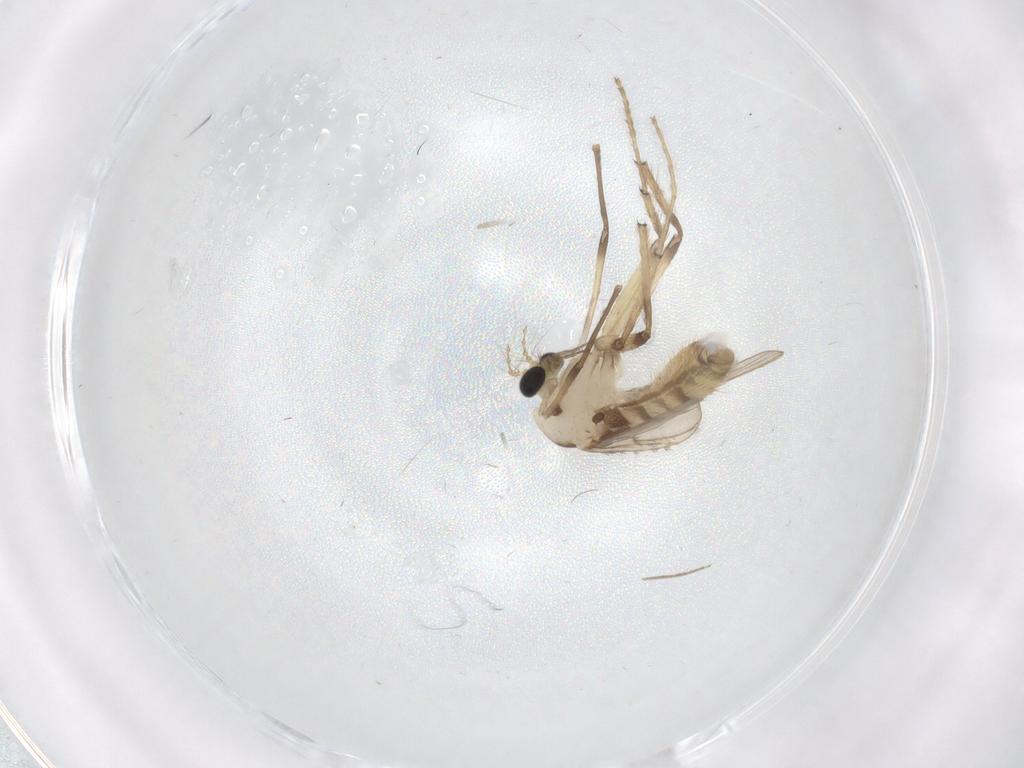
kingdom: Animalia
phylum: Arthropoda
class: Insecta
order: Diptera
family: Chironomidae
